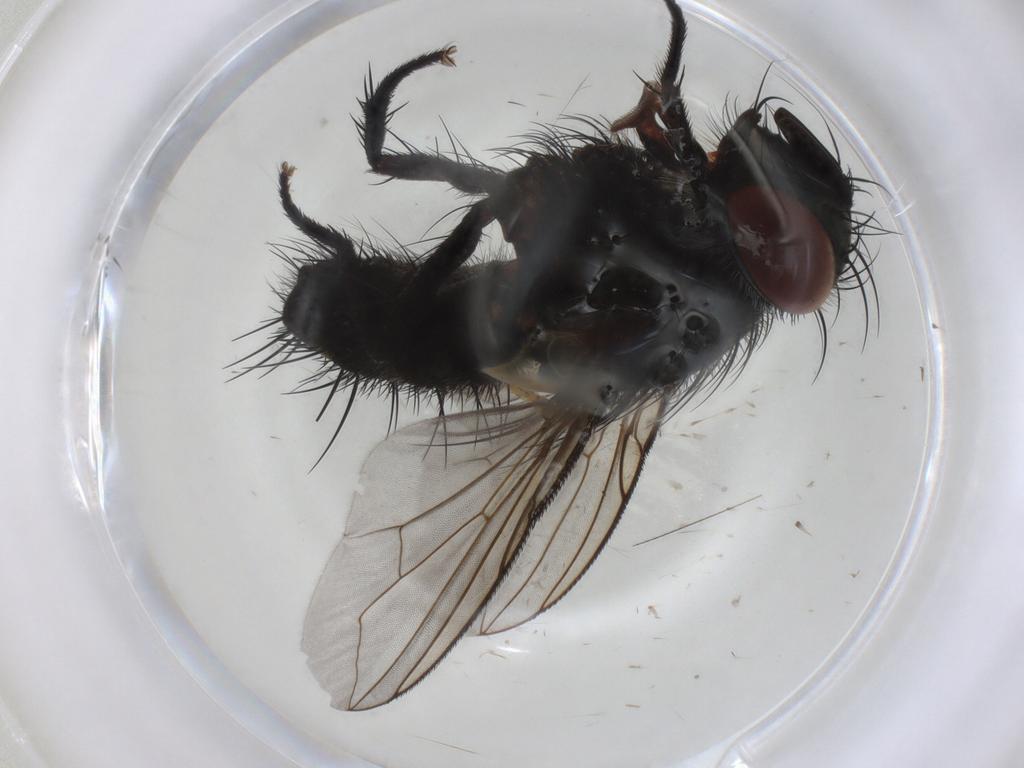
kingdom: Animalia
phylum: Arthropoda
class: Insecta
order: Diptera
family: Tachinidae
